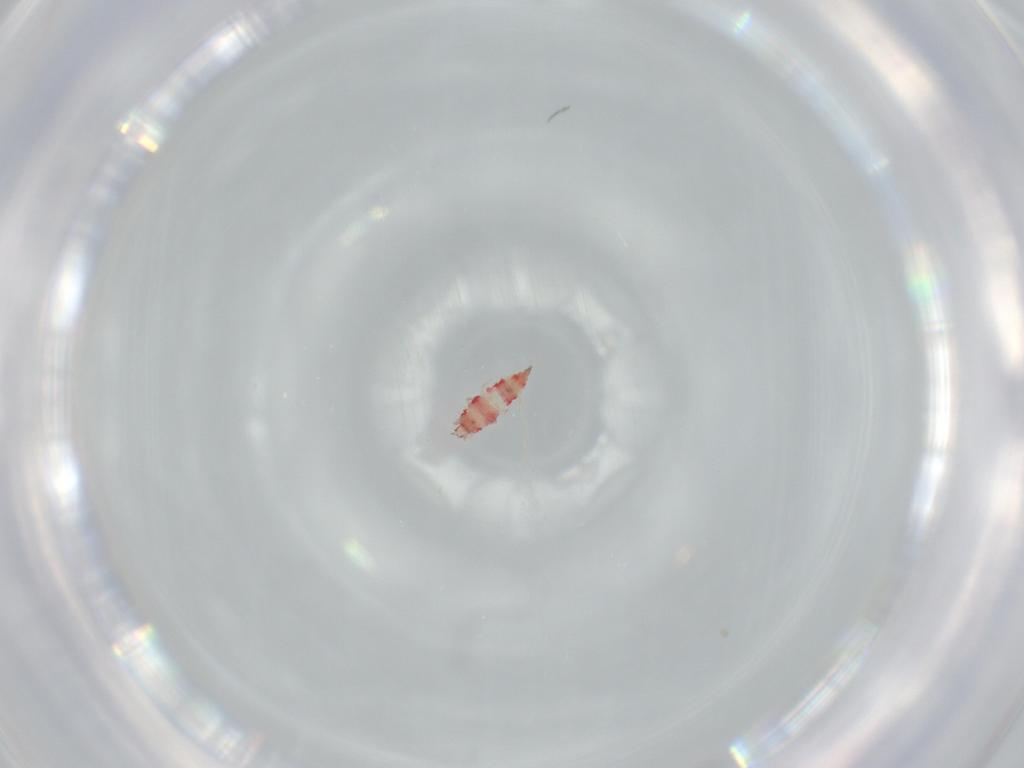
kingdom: Animalia
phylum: Arthropoda
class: Insecta
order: Thysanoptera
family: Phlaeothripidae
